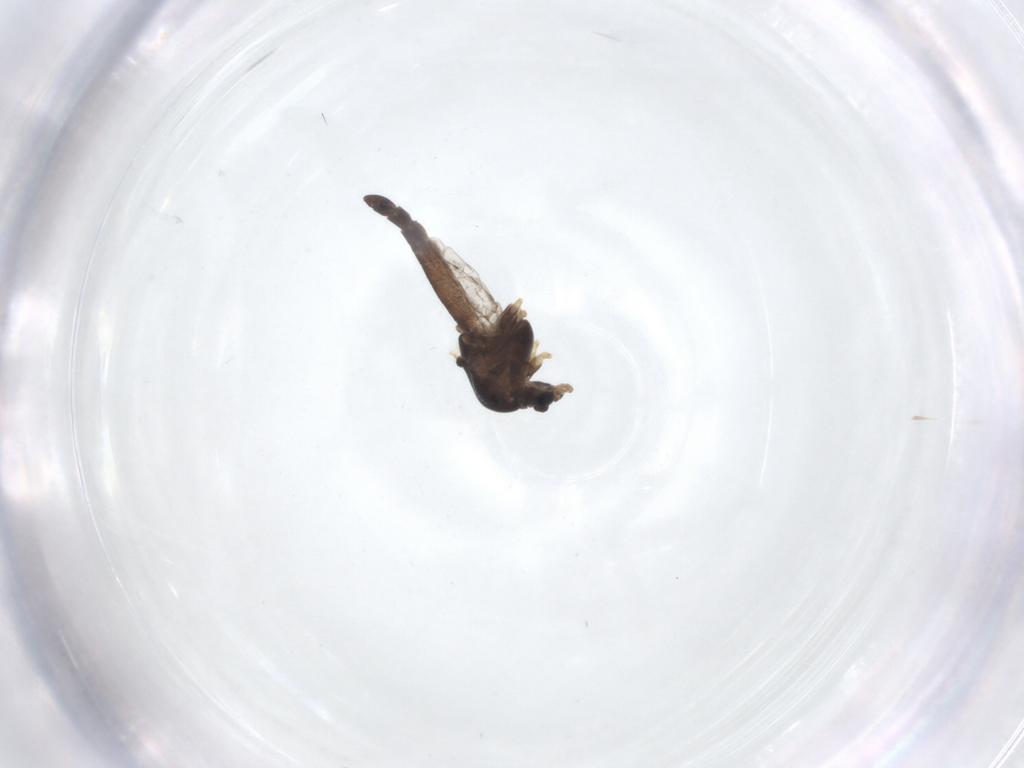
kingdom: Animalia
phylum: Arthropoda
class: Insecta
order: Diptera
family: Chironomidae
